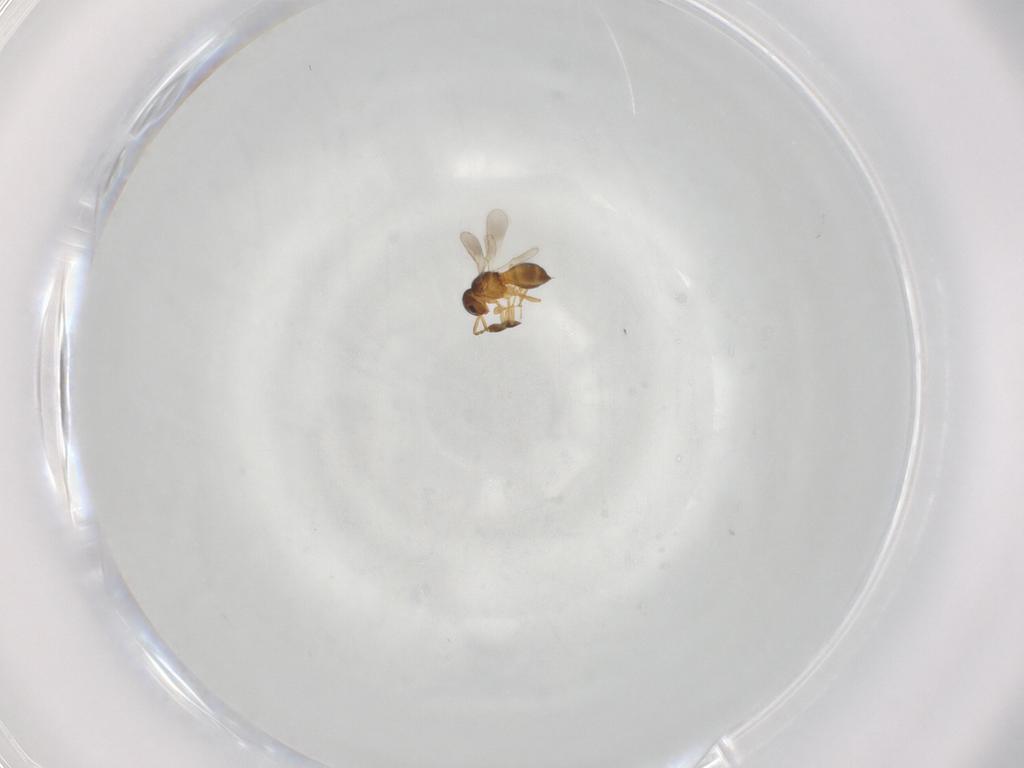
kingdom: Animalia
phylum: Arthropoda
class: Insecta
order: Hymenoptera
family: Scelionidae
